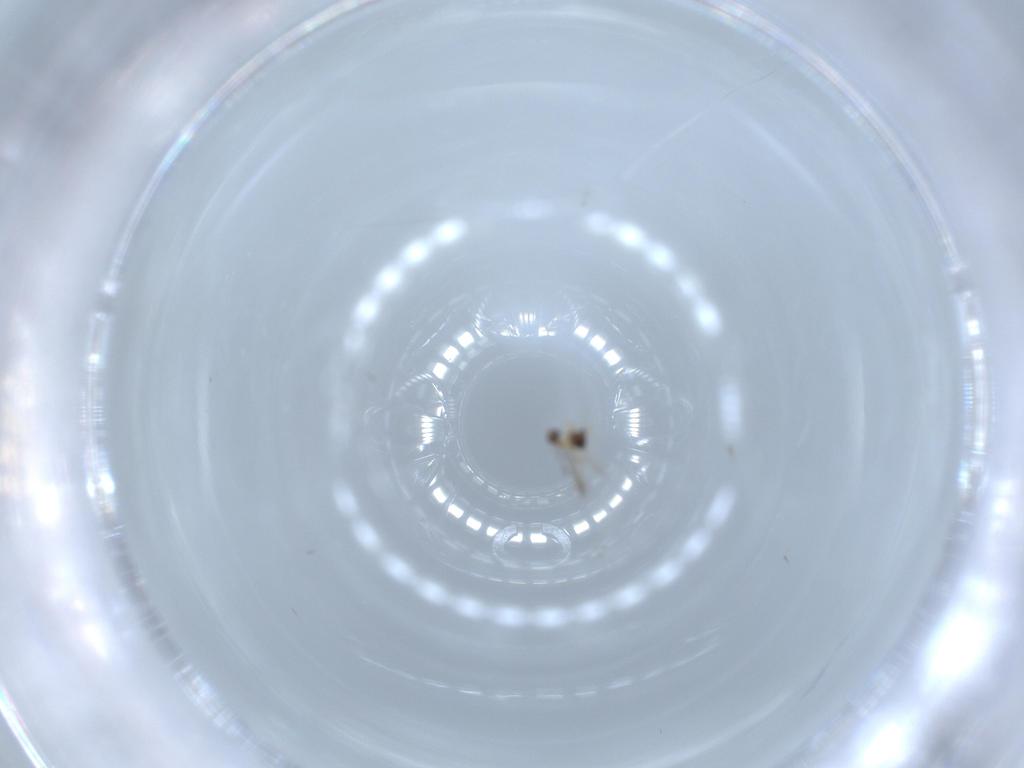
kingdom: Animalia
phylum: Arthropoda
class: Insecta
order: Hymenoptera
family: Mymaridae
